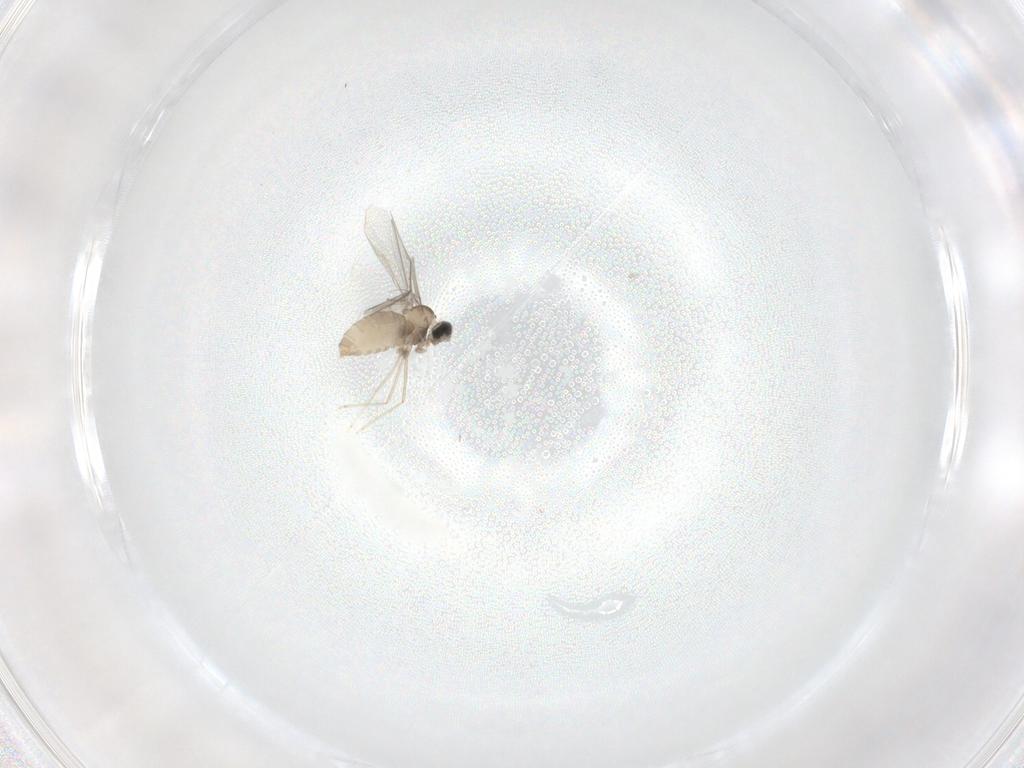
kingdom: Animalia
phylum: Arthropoda
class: Insecta
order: Diptera
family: Cecidomyiidae
